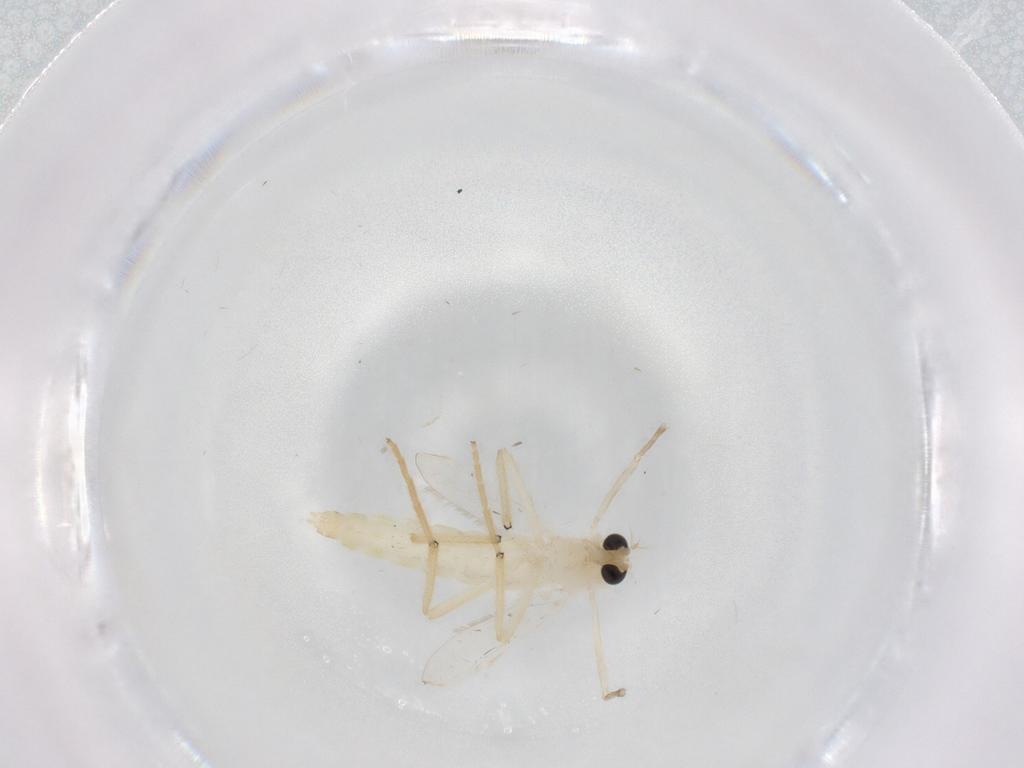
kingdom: Animalia
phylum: Arthropoda
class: Insecta
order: Diptera
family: Chironomidae
